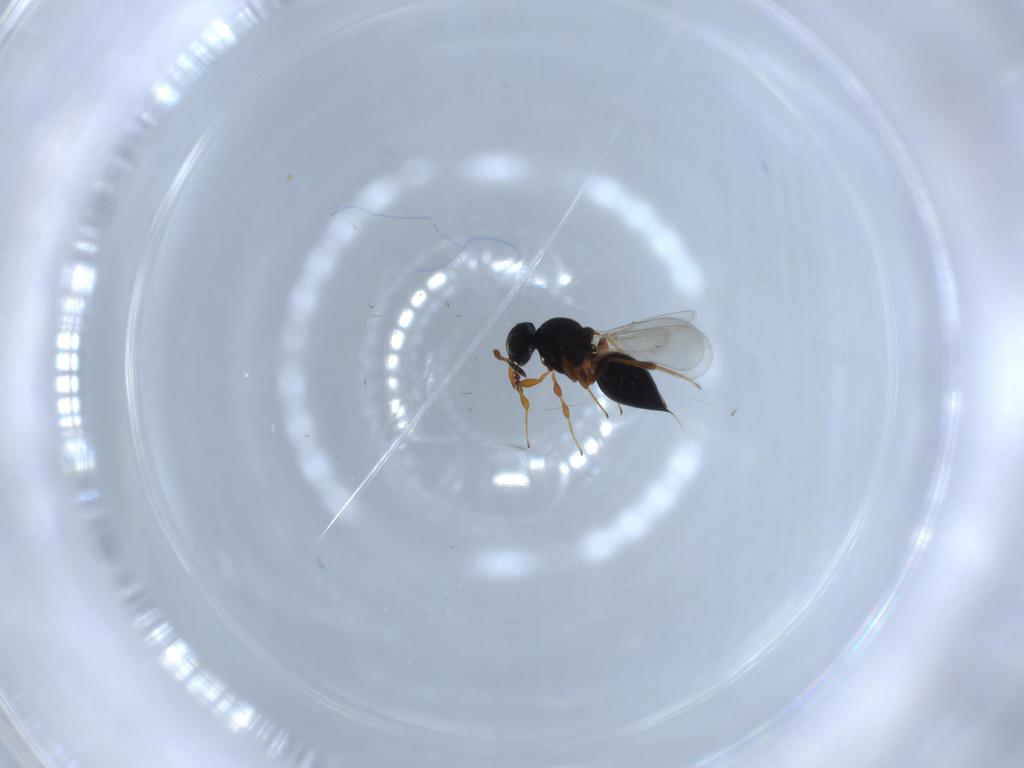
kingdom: Animalia
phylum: Arthropoda
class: Insecta
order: Hymenoptera
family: Platygastridae
